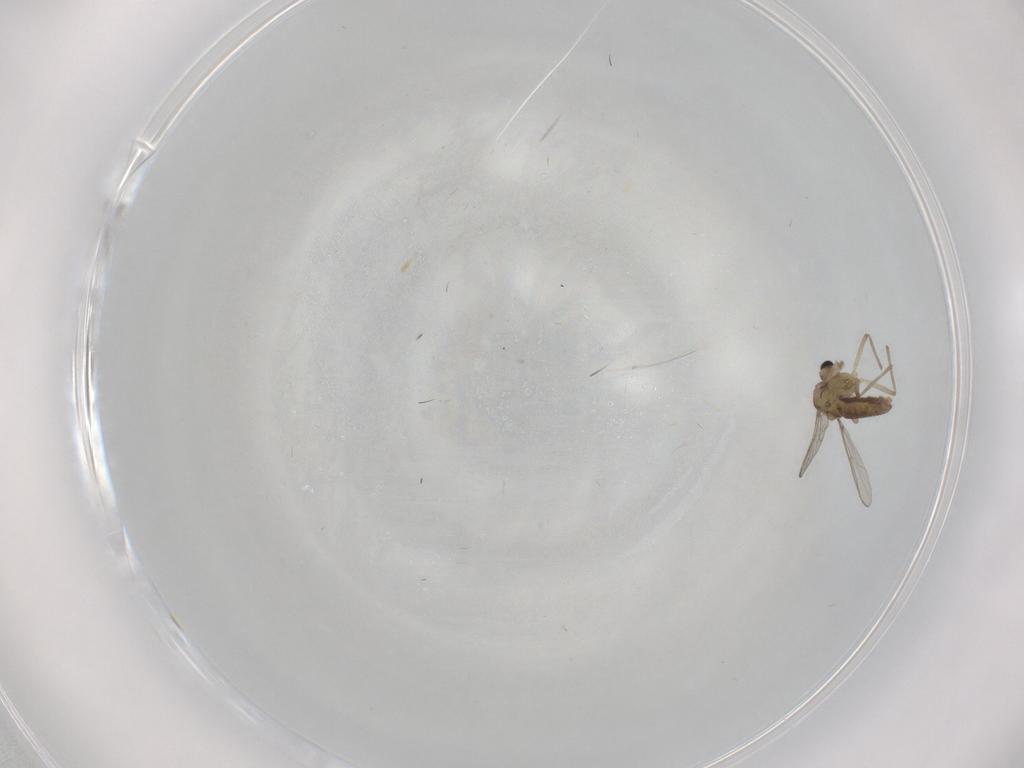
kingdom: Animalia
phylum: Arthropoda
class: Insecta
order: Diptera
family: Chironomidae
